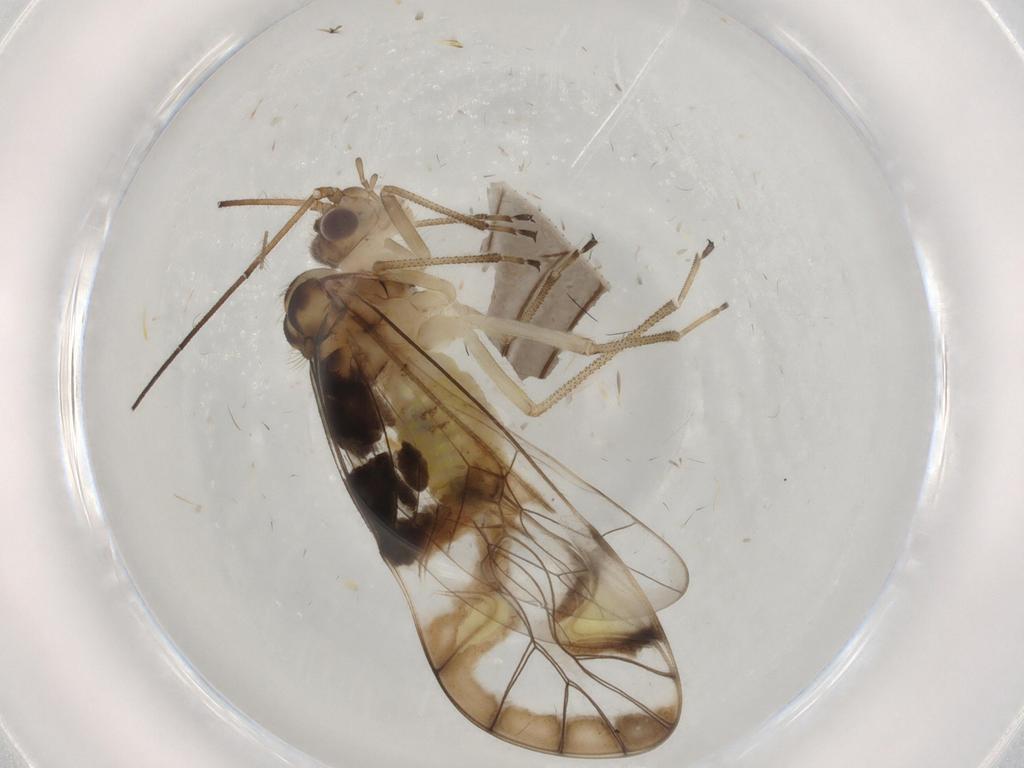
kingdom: Animalia
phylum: Arthropoda
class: Insecta
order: Psocodea
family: Amphipsocidae
